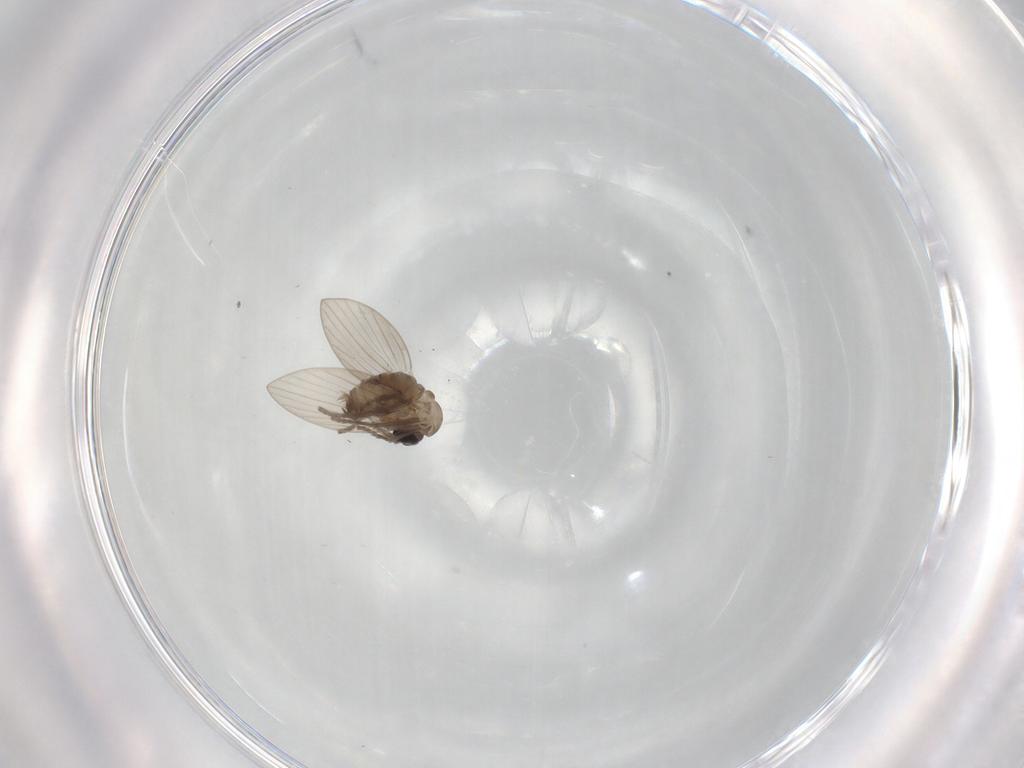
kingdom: Animalia
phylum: Arthropoda
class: Insecta
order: Diptera
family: Psychodidae
